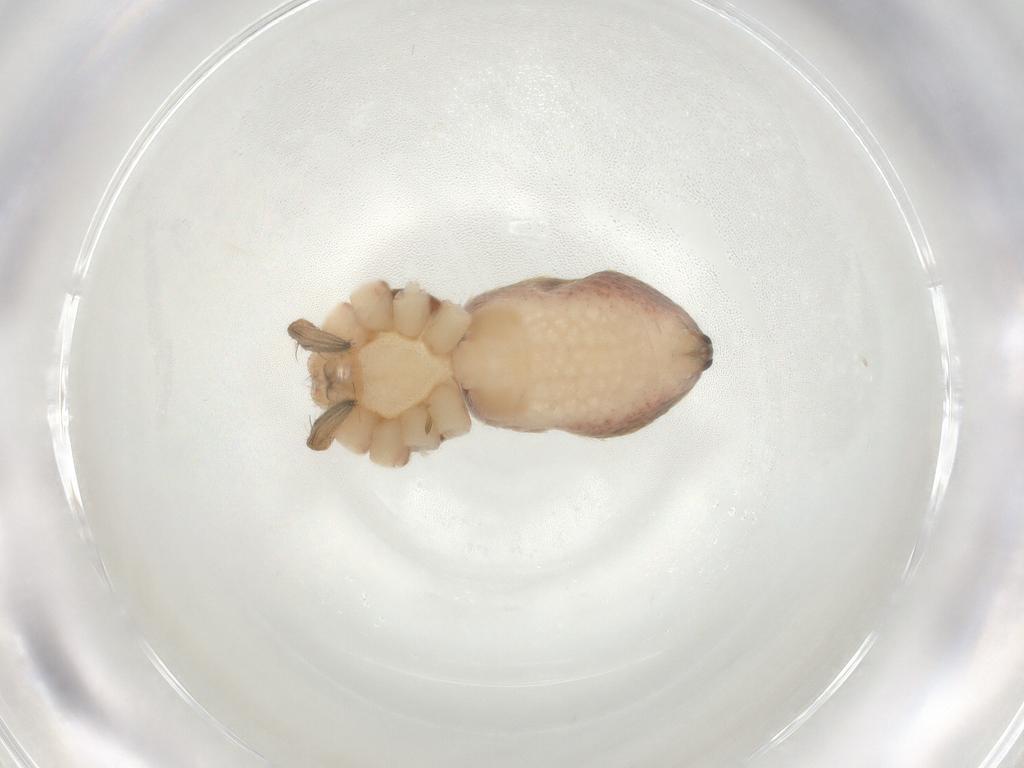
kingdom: Animalia
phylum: Arthropoda
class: Arachnida
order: Araneae
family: Philodromidae
